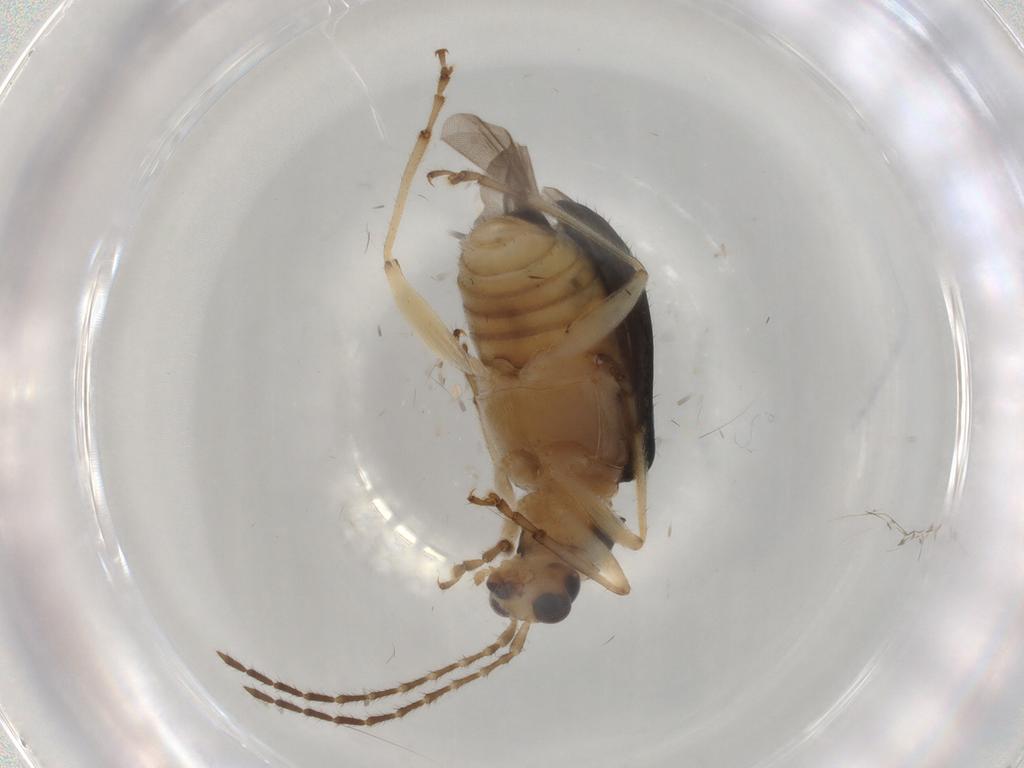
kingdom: Animalia
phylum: Arthropoda
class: Insecta
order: Coleoptera
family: Chrysomelidae
